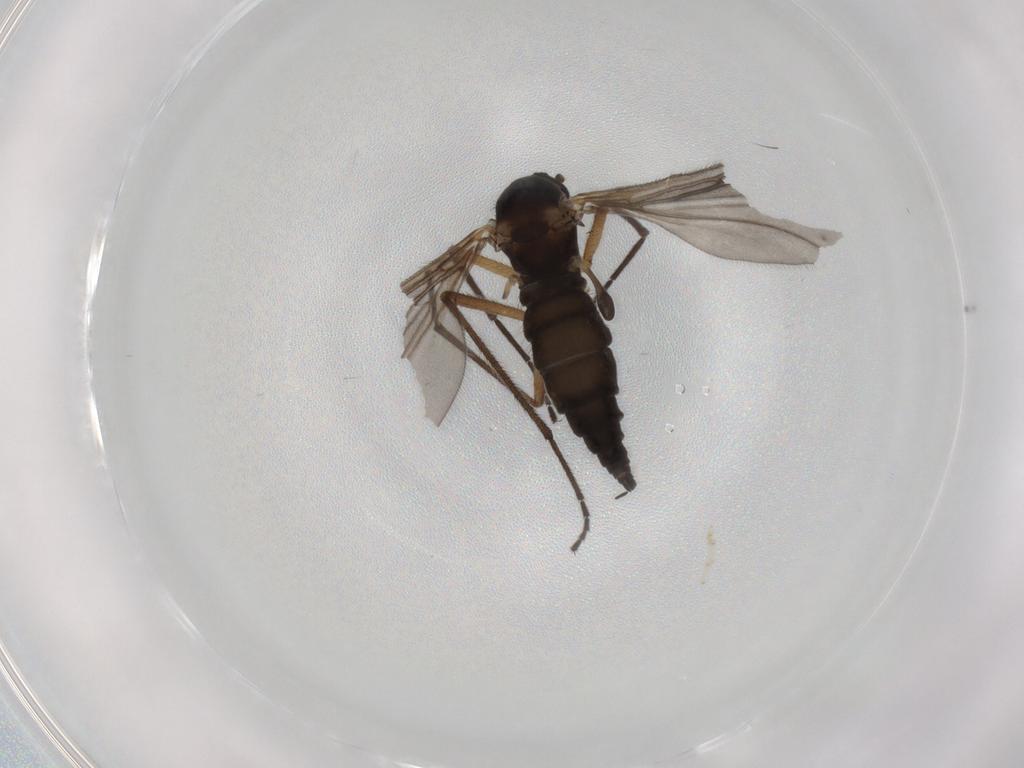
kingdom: Animalia
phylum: Arthropoda
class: Insecta
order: Diptera
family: Sciaridae
